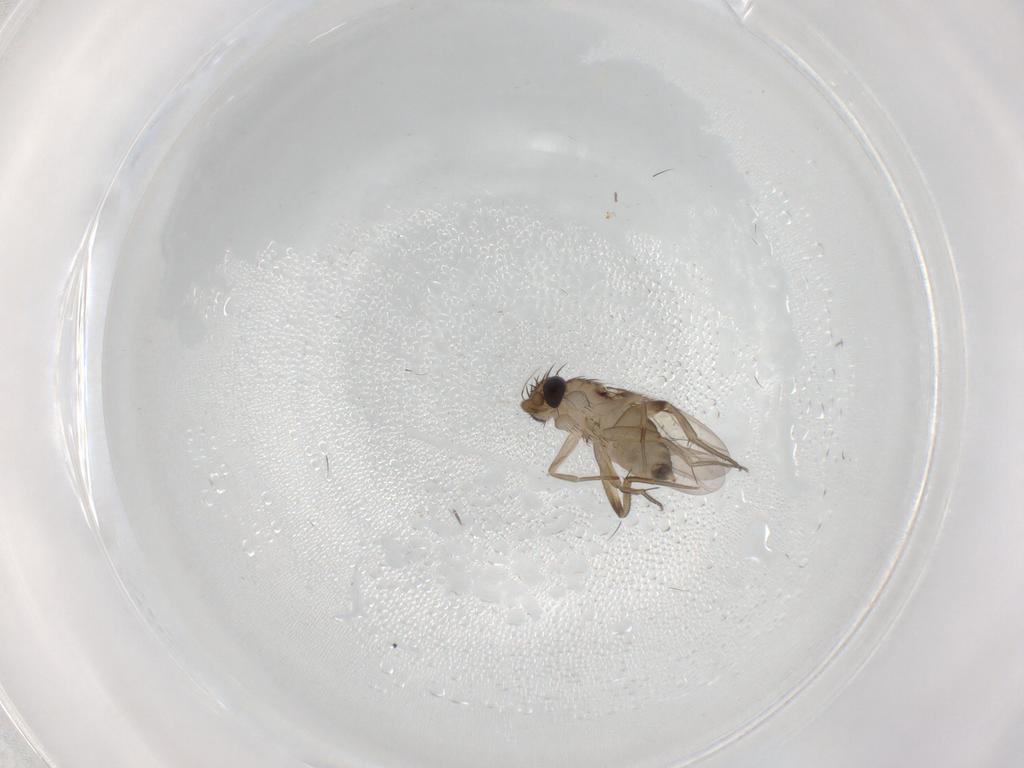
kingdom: Animalia
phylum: Arthropoda
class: Insecta
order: Diptera
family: Phoridae
